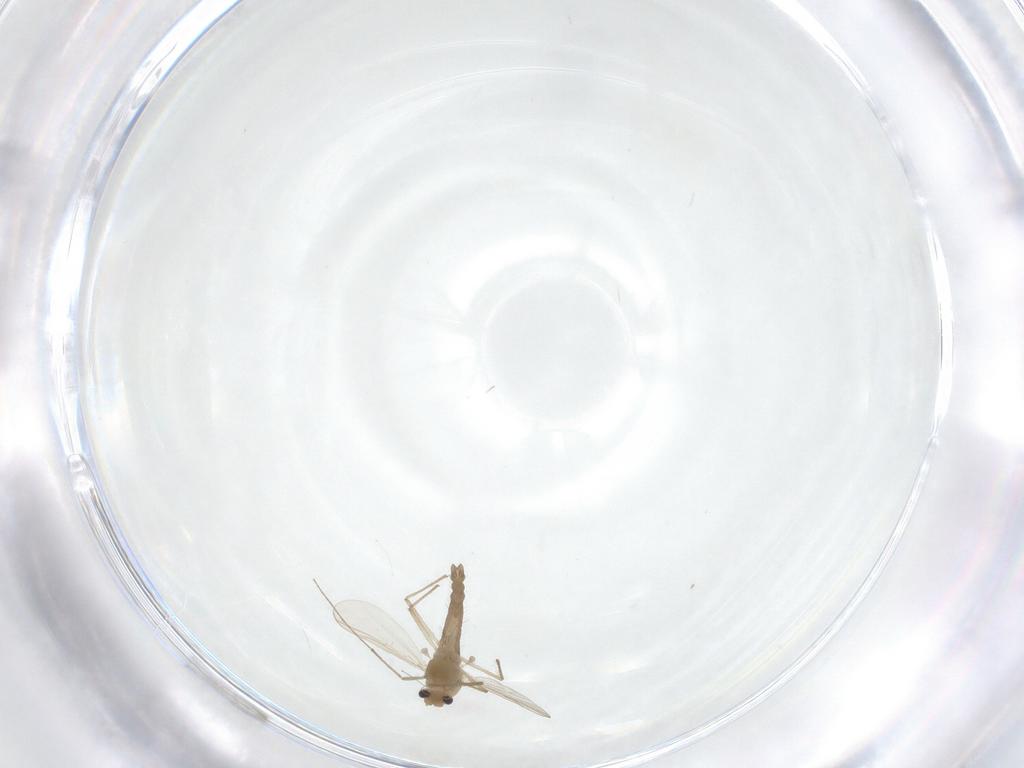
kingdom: Animalia
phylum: Arthropoda
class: Insecta
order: Diptera
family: Chironomidae
